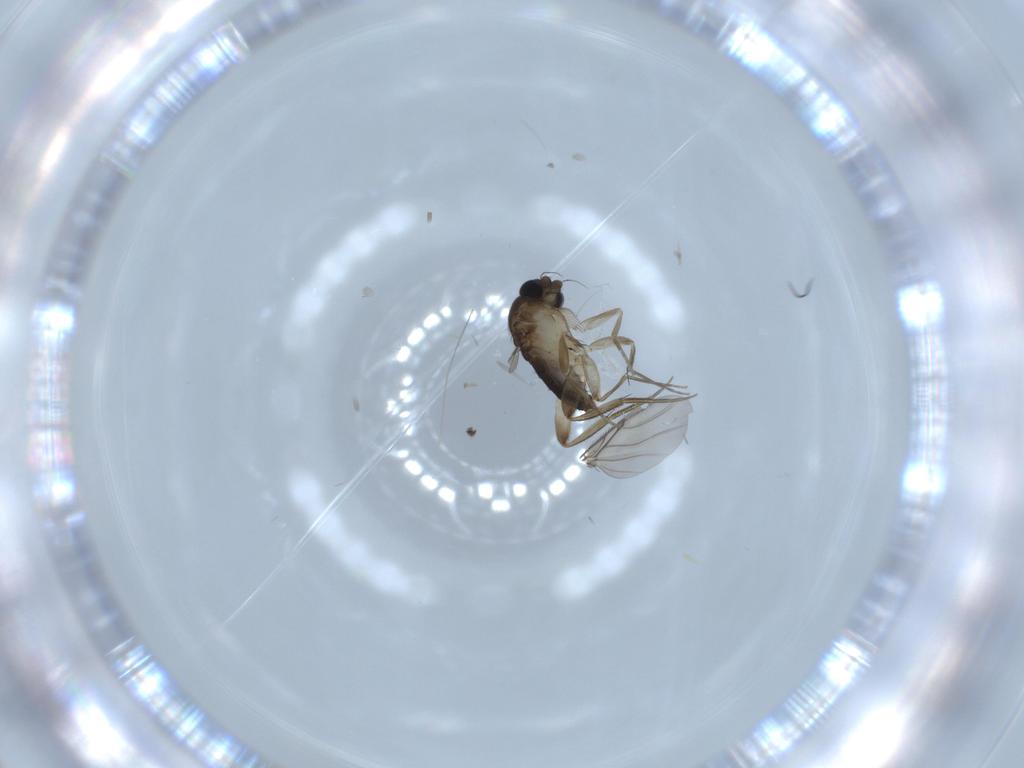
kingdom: Animalia
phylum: Arthropoda
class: Insecta
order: Diptera
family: Phoridae
